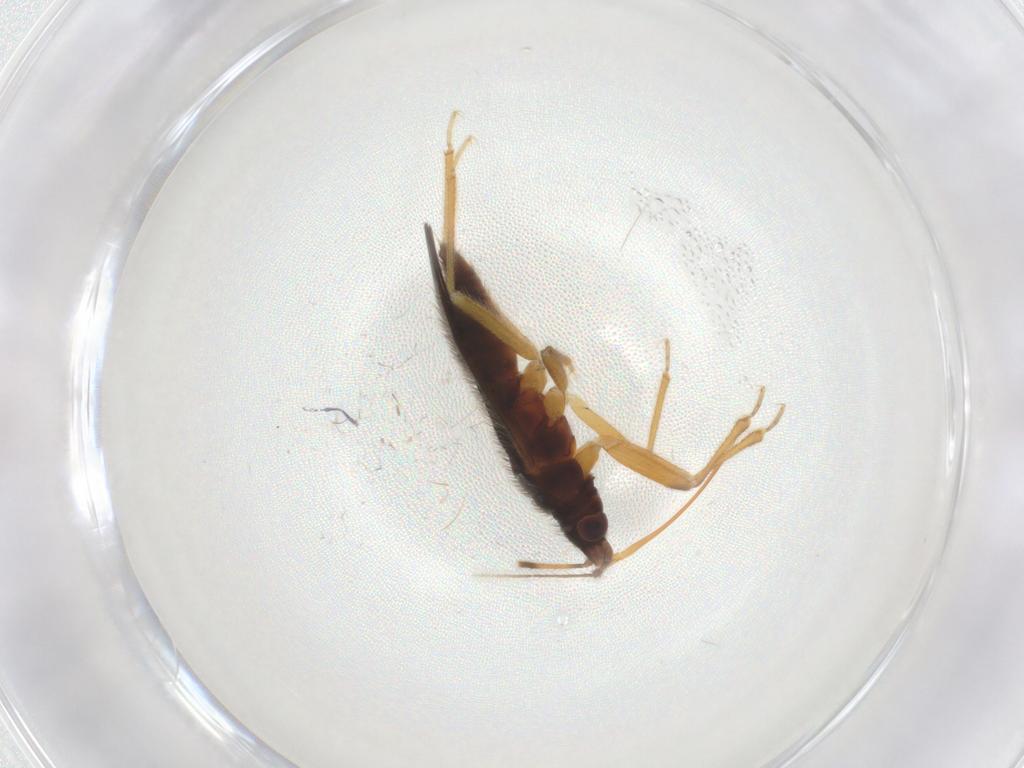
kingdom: Animalia
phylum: Arthropoda
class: Insecta
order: Hemiptera
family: Anthocoridae
